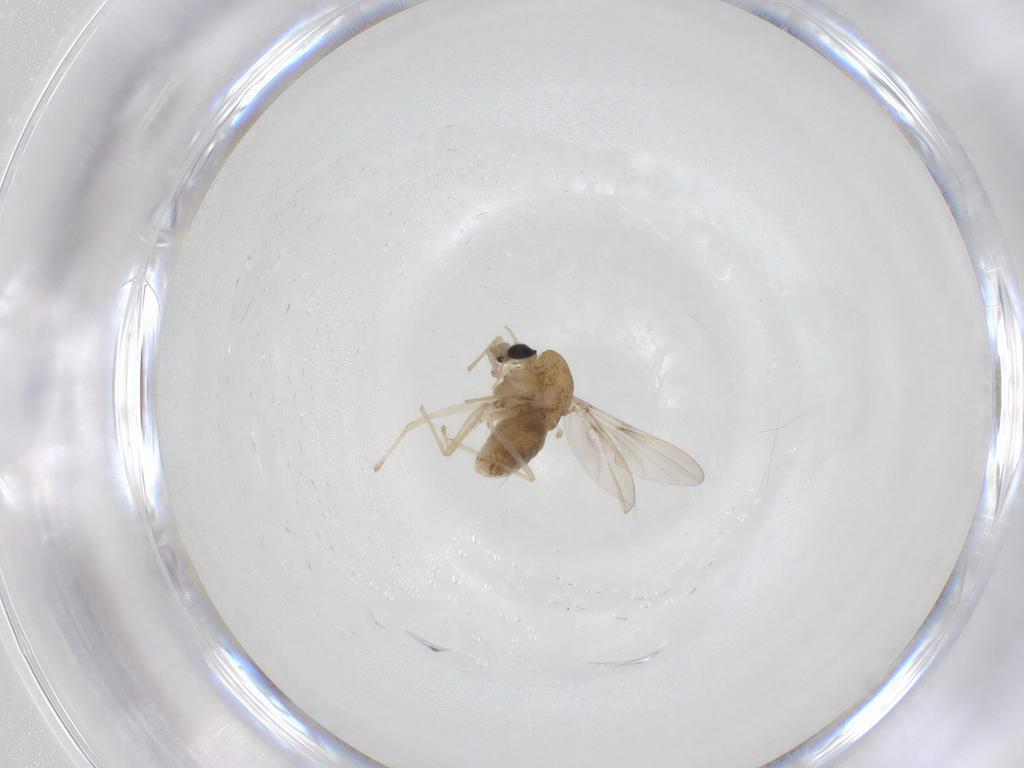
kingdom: Animalia
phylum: Arthropoda
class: Insecta
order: Diptera
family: Chironomidae
